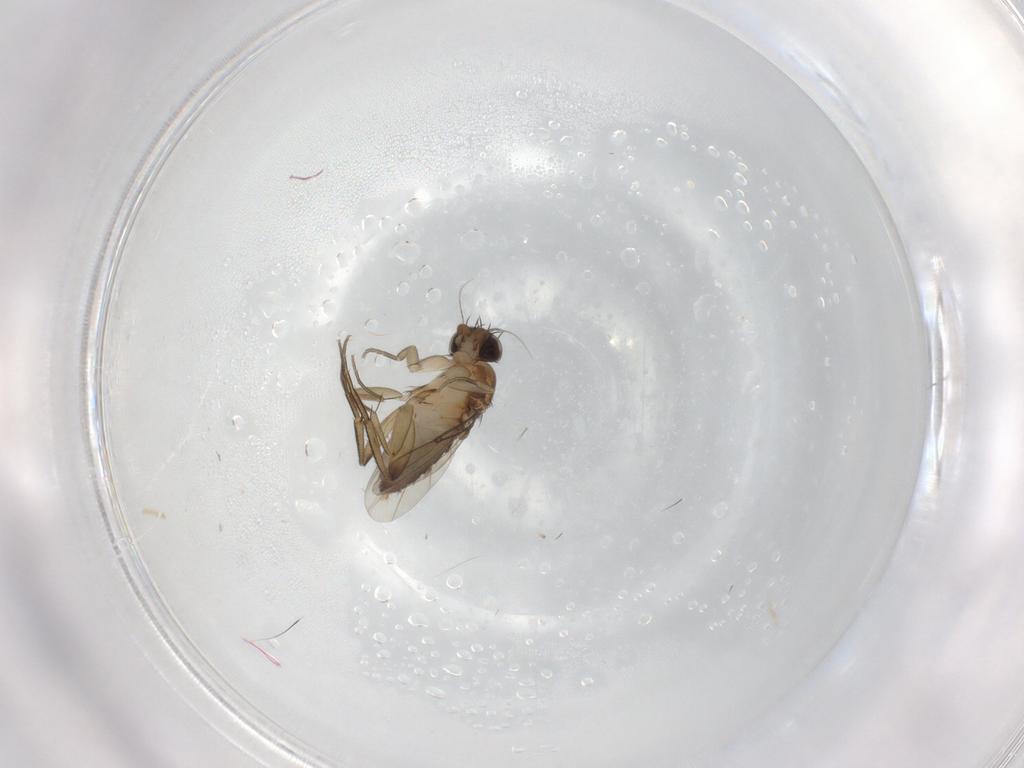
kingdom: Animalia
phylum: Arthropoda
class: Insecta
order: Diptera
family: Phoridae
